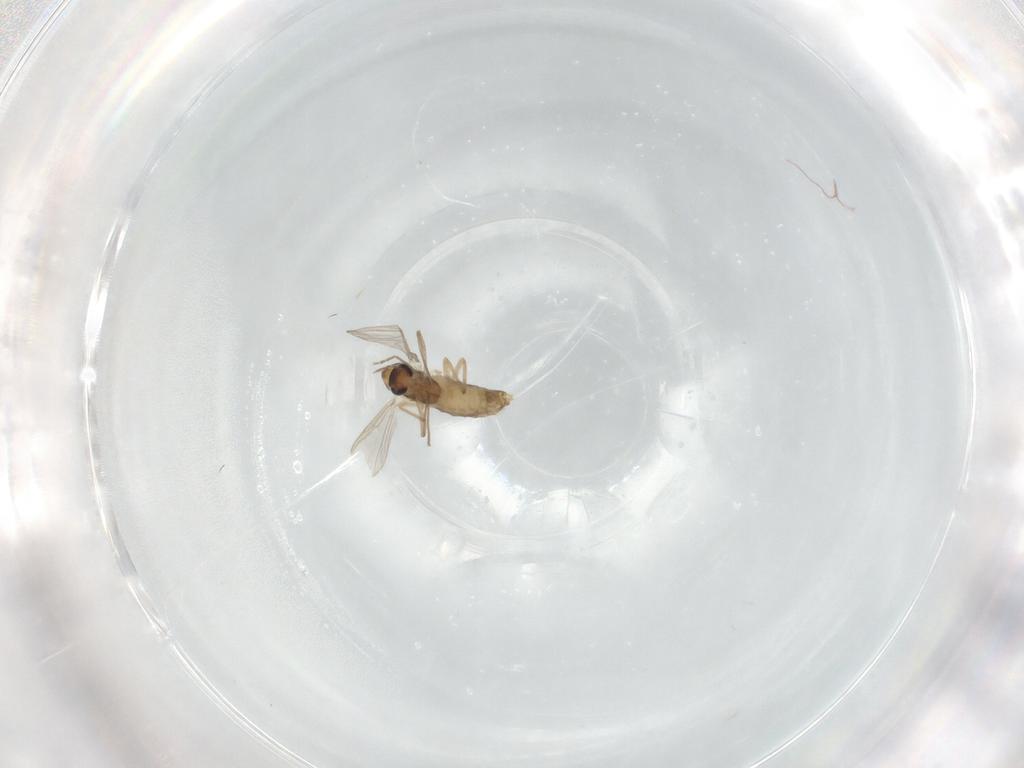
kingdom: Animalia
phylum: Arthropoda
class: Insecta
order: Diptera
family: Chironomidae
